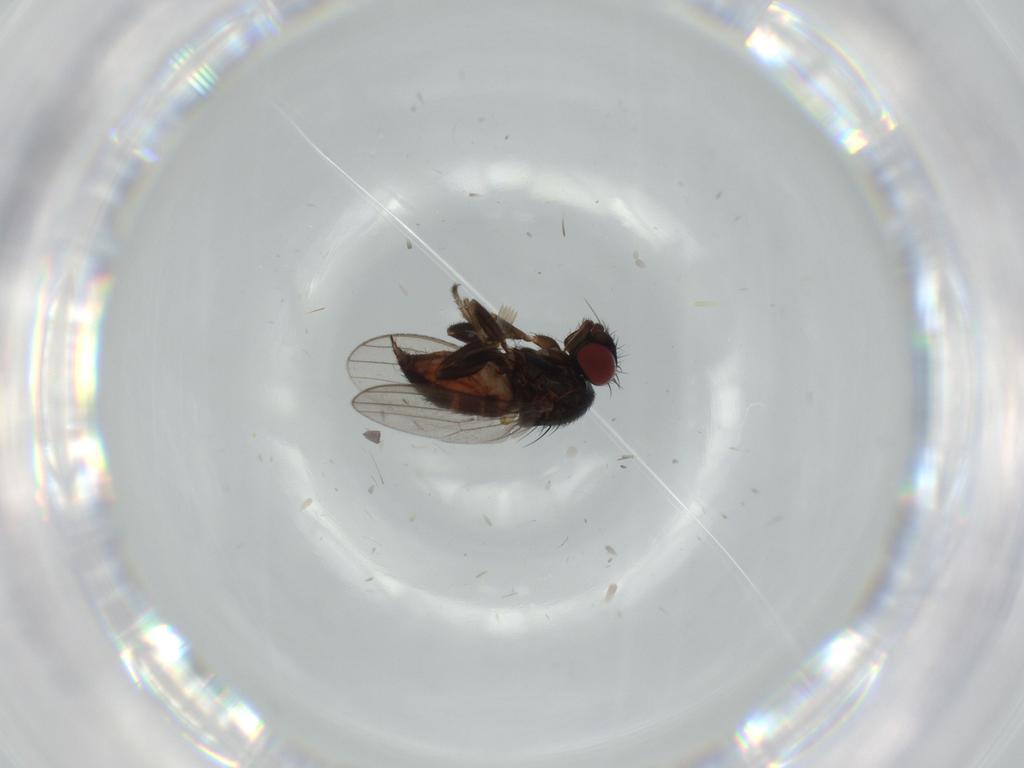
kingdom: Animalia
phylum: Arthropoda
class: Insecta
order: Diptera
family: Milichiidae
